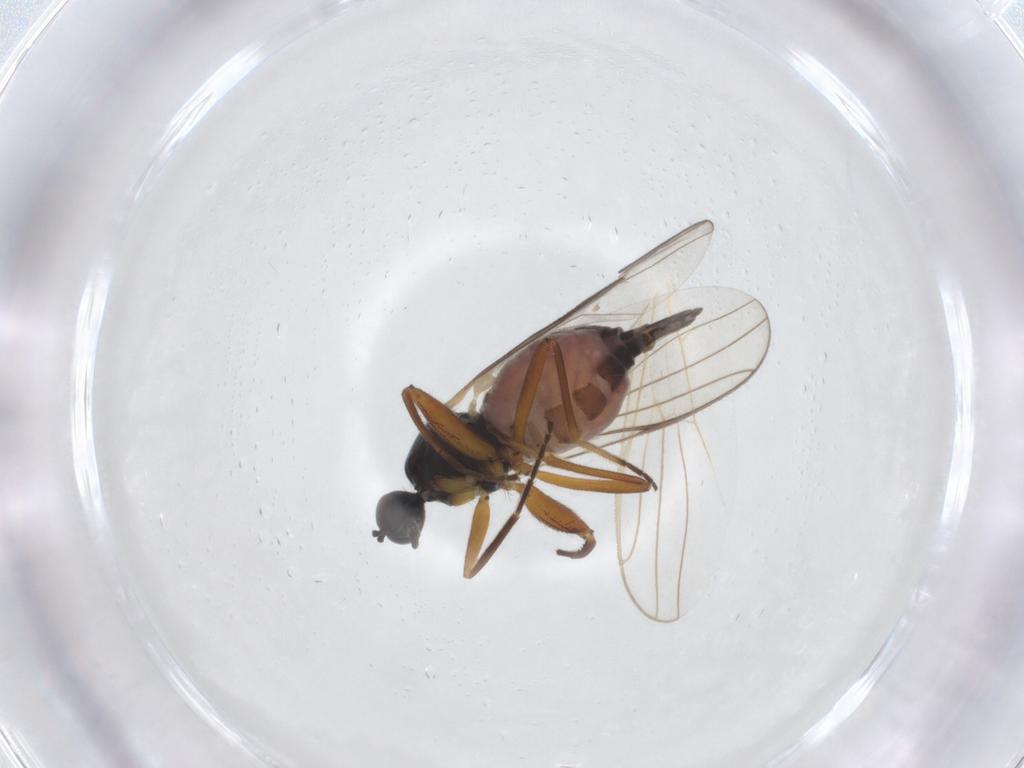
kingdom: Animalia
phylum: Arthropoda
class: Insecta
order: Diptera
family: Hybotidae
